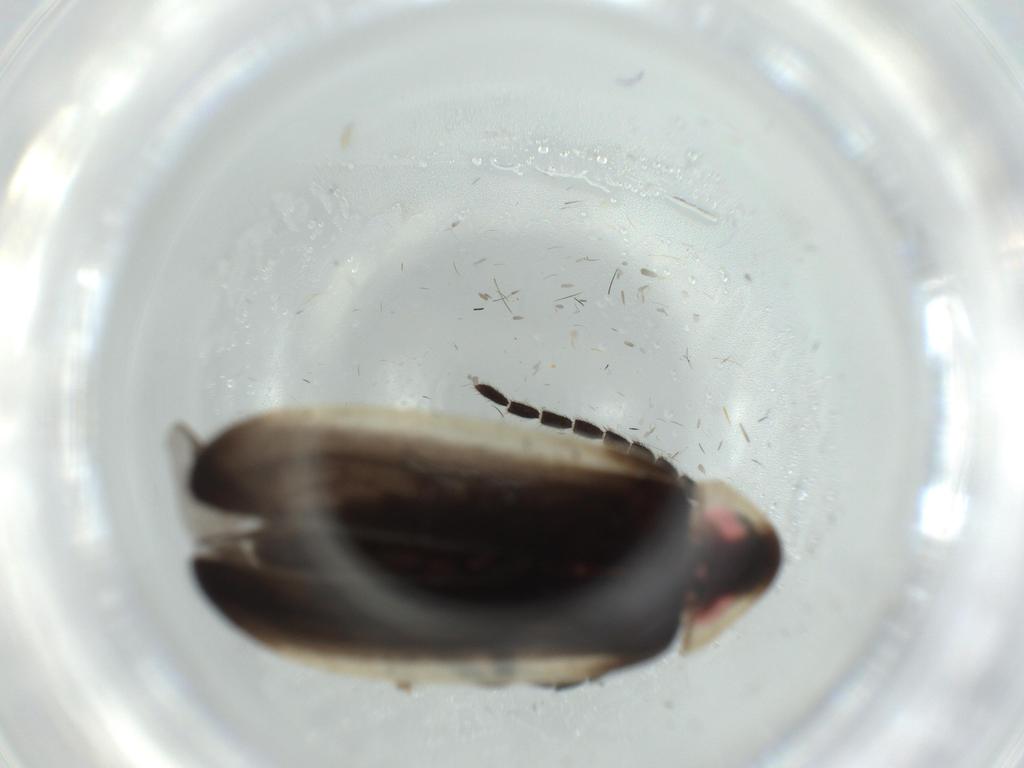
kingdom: Animalia
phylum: Arthropoda
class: Insecta
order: Coleoptera
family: Lampyridae
